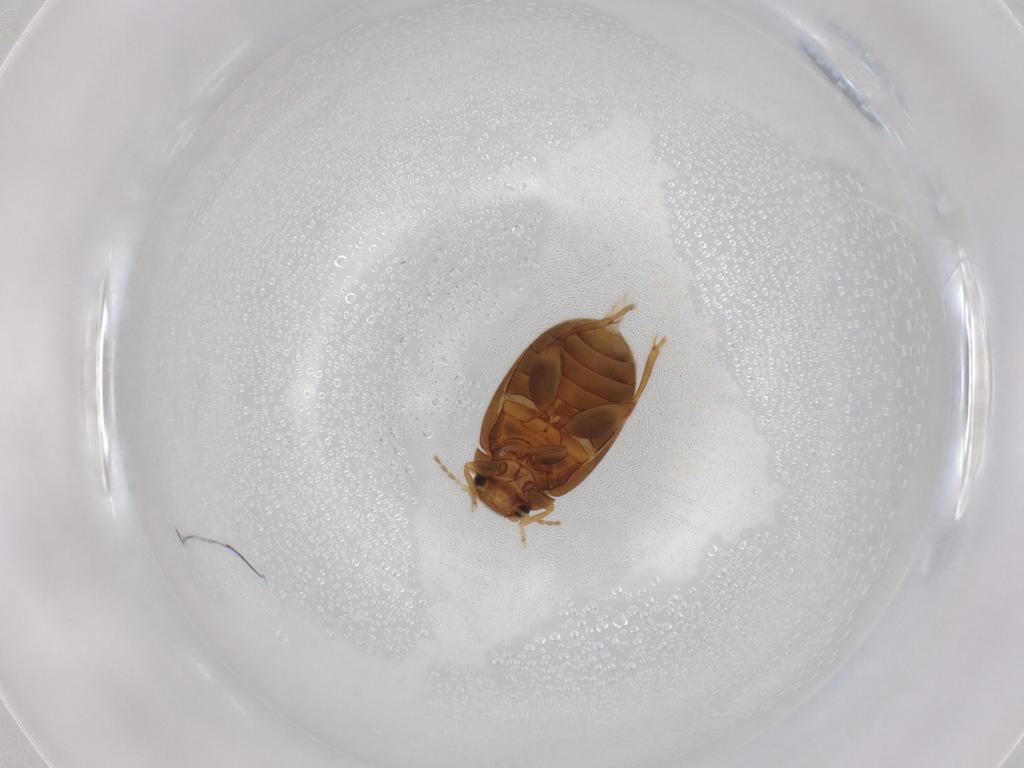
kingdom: Animalia
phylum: Arthropoda
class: Insecta
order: Coleoptera
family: Scirtidae
